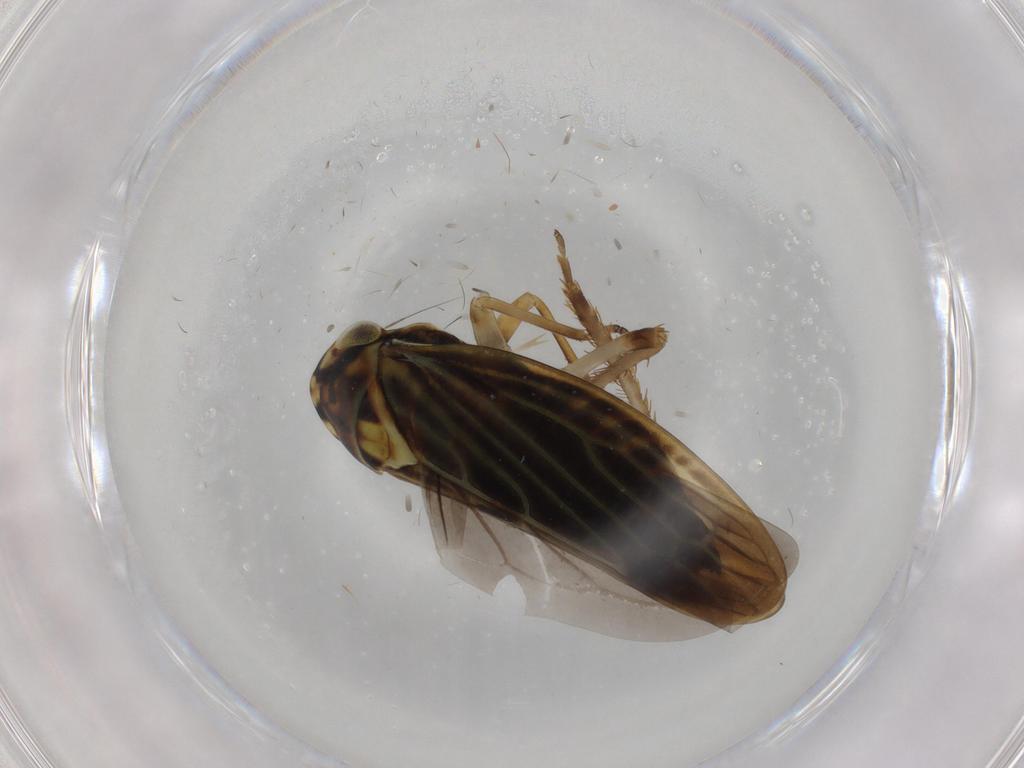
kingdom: Animalia
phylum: Arthropoda
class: Insecta
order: Hemiptera
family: Cicadellidae
